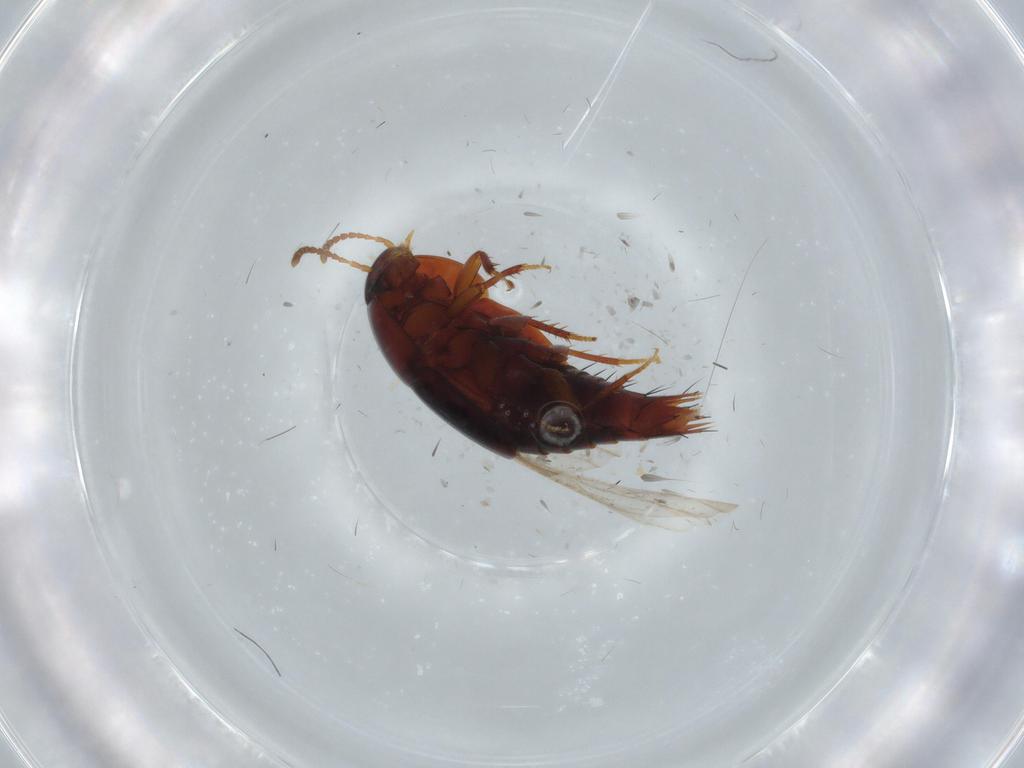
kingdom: Animalia
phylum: Arthropoda
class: Insecta
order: Coleoptera
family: Staphylinidae
